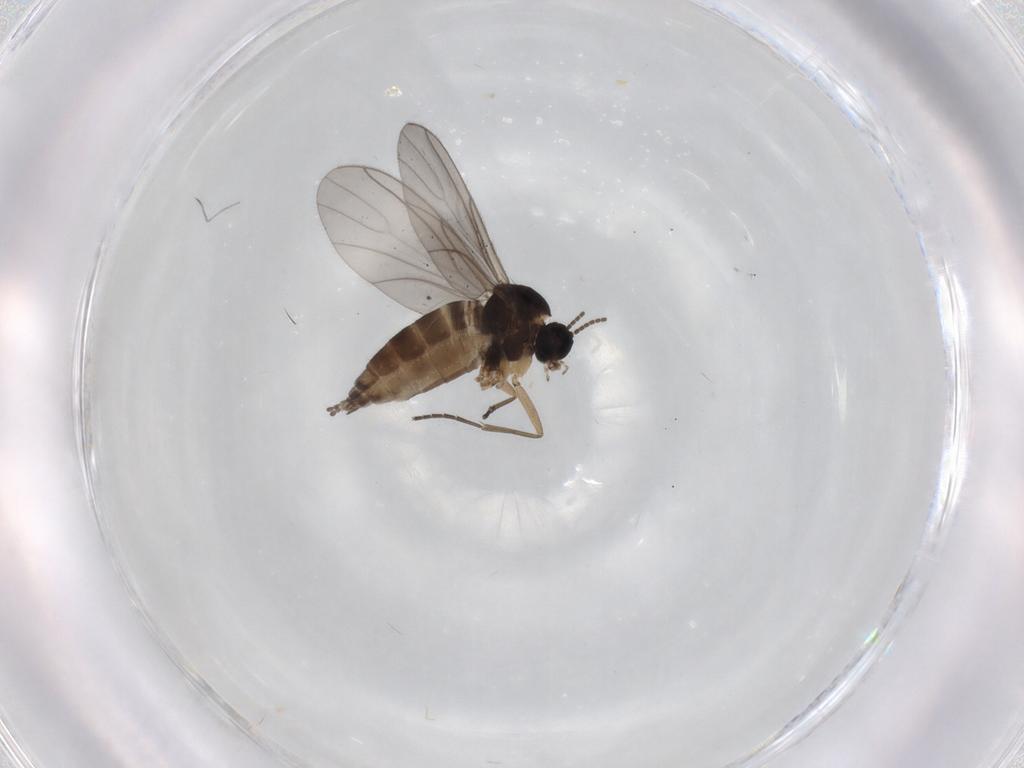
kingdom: Animalia
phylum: Arthropoda
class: Insecta
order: Diptera
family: Sciaridae
